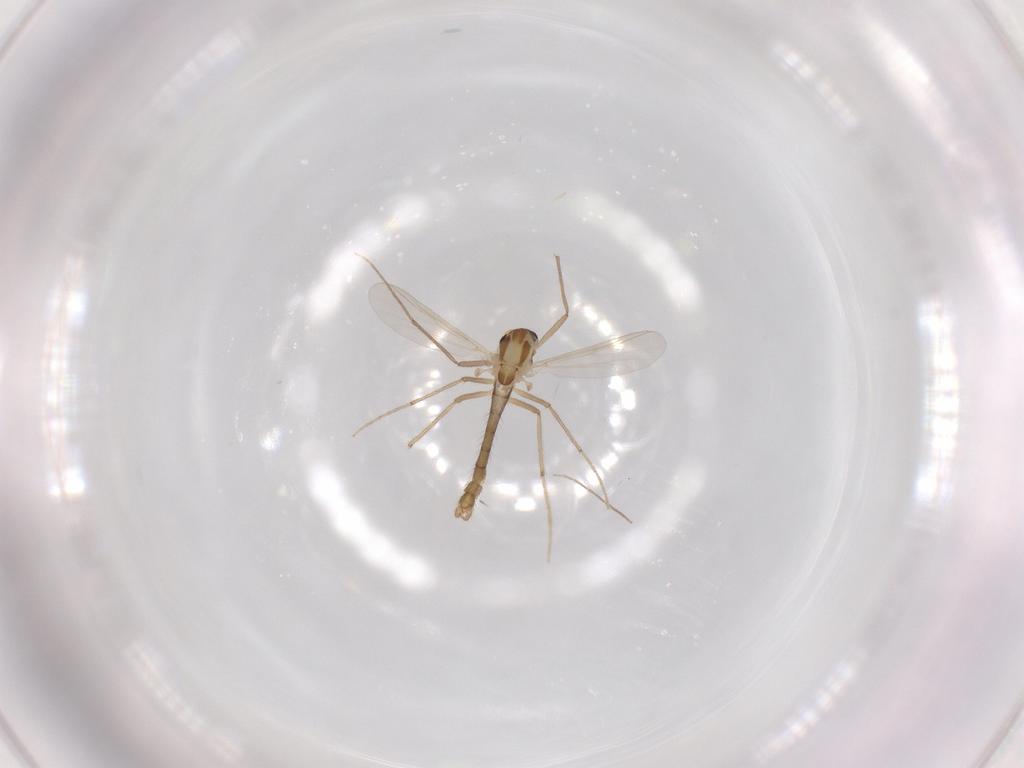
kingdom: Animalia
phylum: Arthropoda
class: Insecta
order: Diptera
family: Chironomidae
